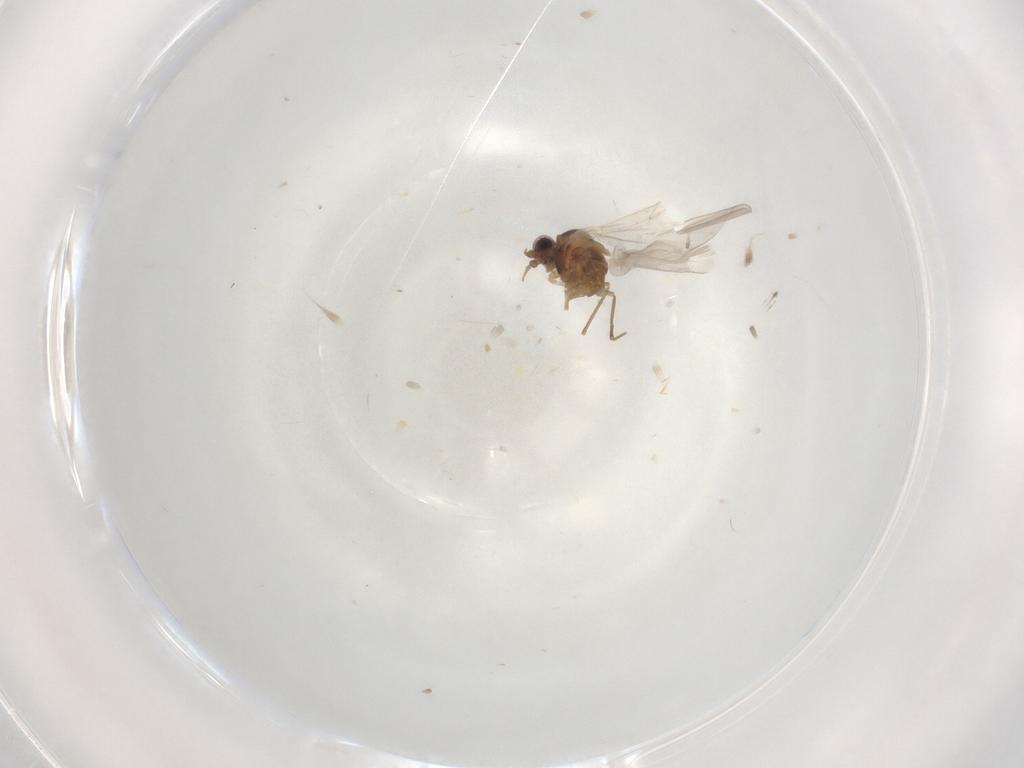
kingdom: Animalia
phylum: Arthropoda
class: Insecta
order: Diptera
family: Cecidomyiidae
